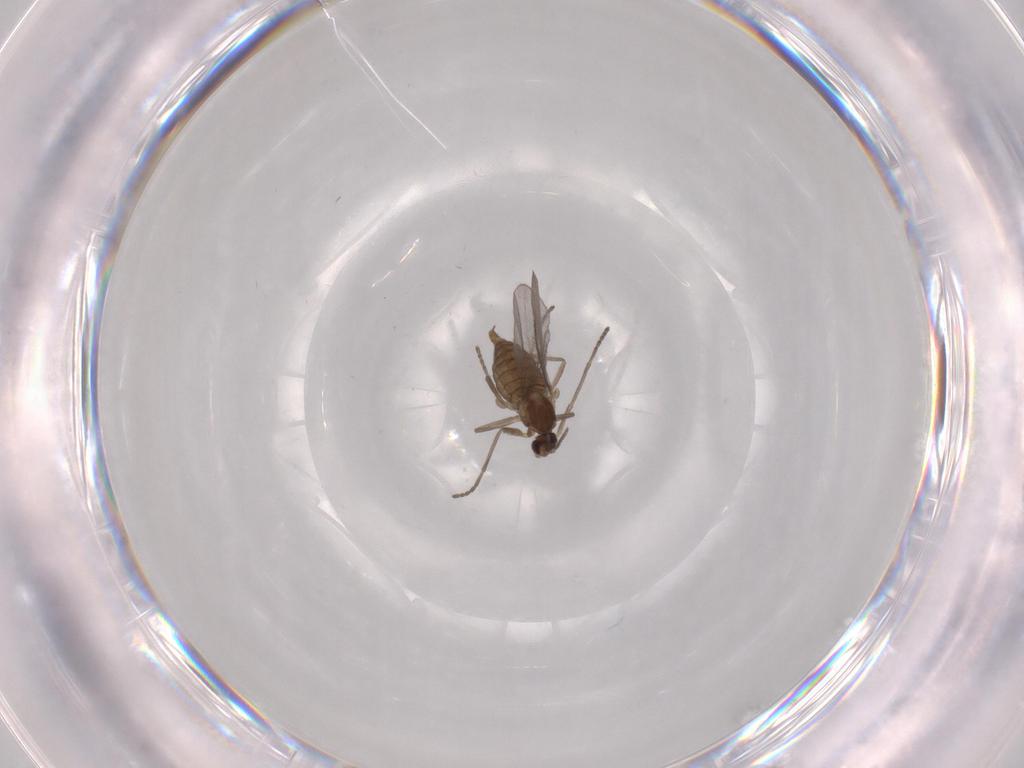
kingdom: Animalia
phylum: Arthropoda
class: Insecta
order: Diptera
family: Cecidomyiidae
